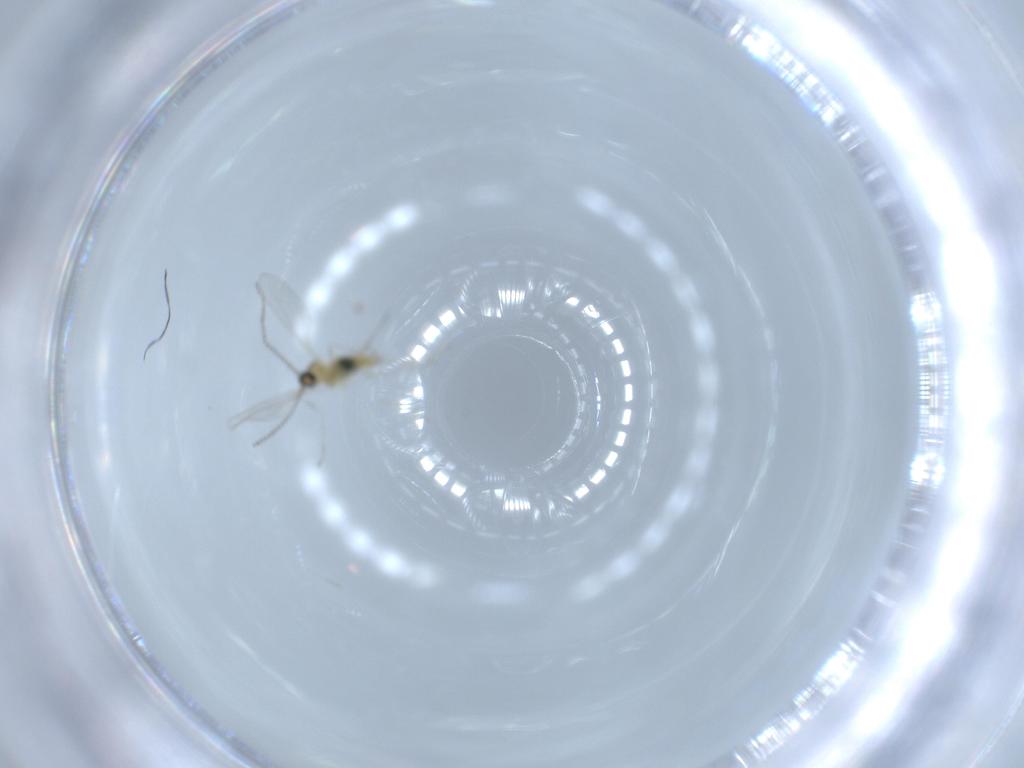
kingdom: Animalia
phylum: Arthropoda
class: Insecta
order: Diptera
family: Cecidomyiidae
